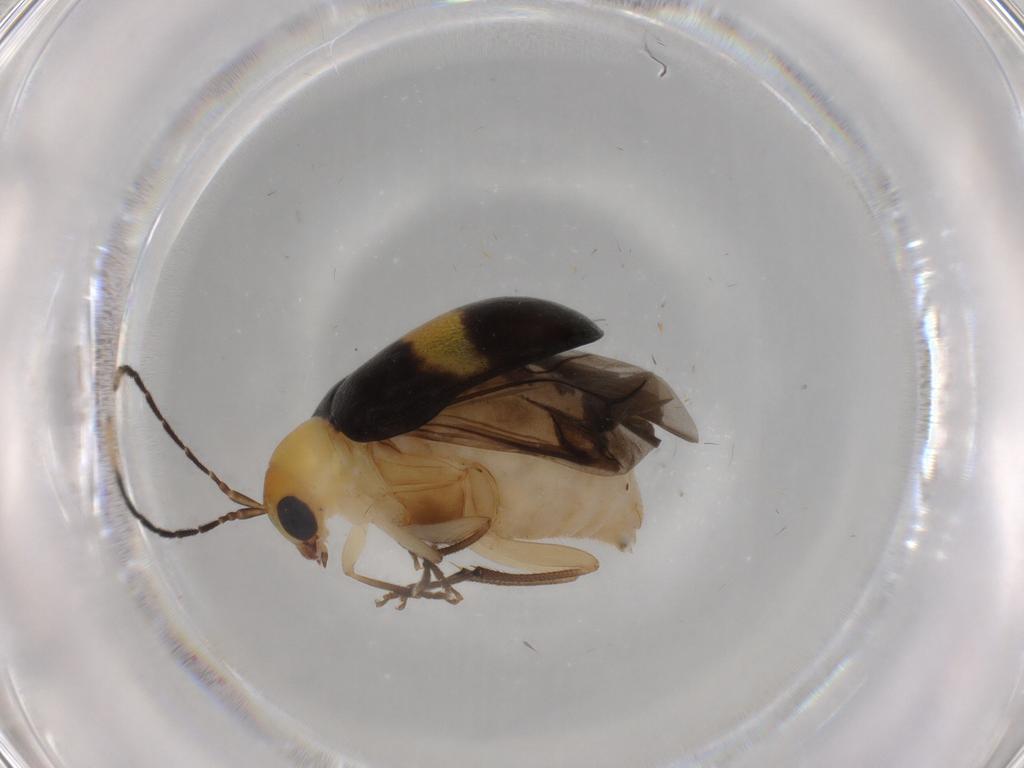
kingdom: Animalia
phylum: Arthropoda
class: Insecta
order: Coleoptera
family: Chrysomelidae
